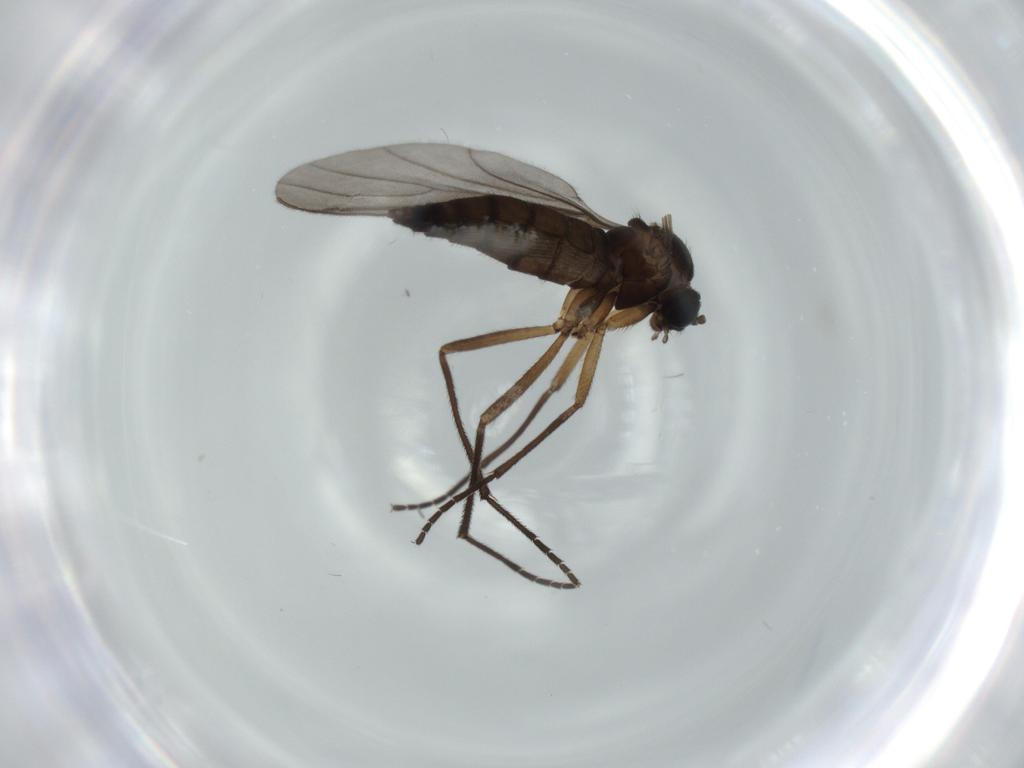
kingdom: Animalia
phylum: Arthropoda
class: Insecta
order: Diptera
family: Sciaridae
